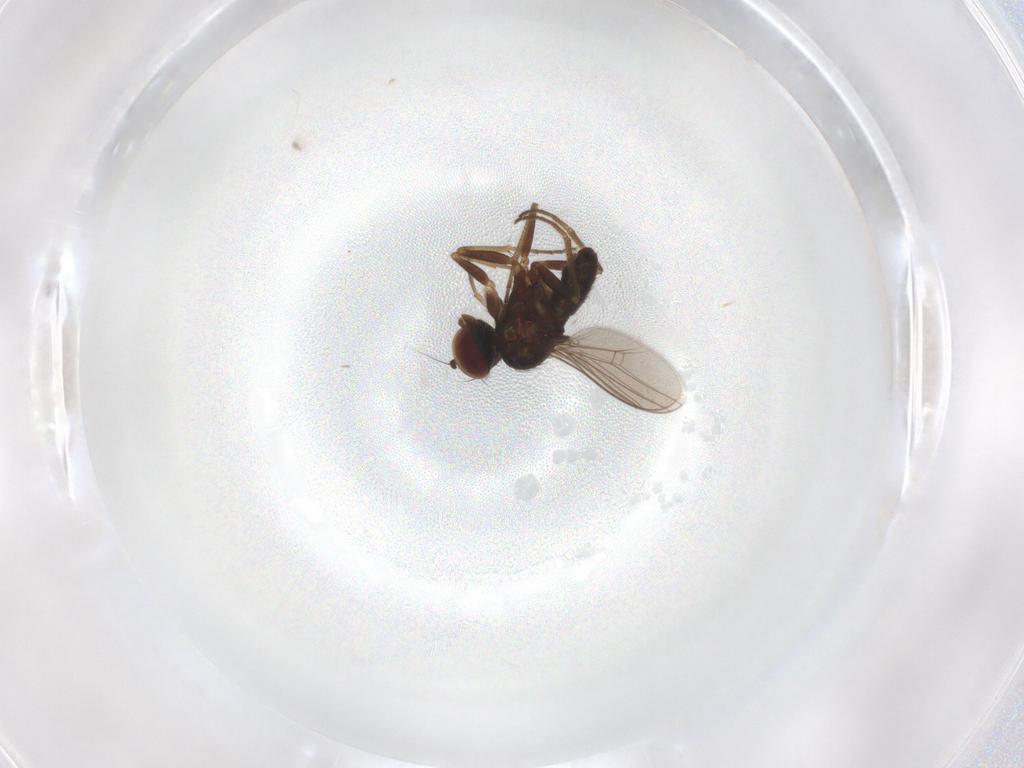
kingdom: Animalia
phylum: Arthropoda
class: Insecta
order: Diptera
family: Dolichopodidae
